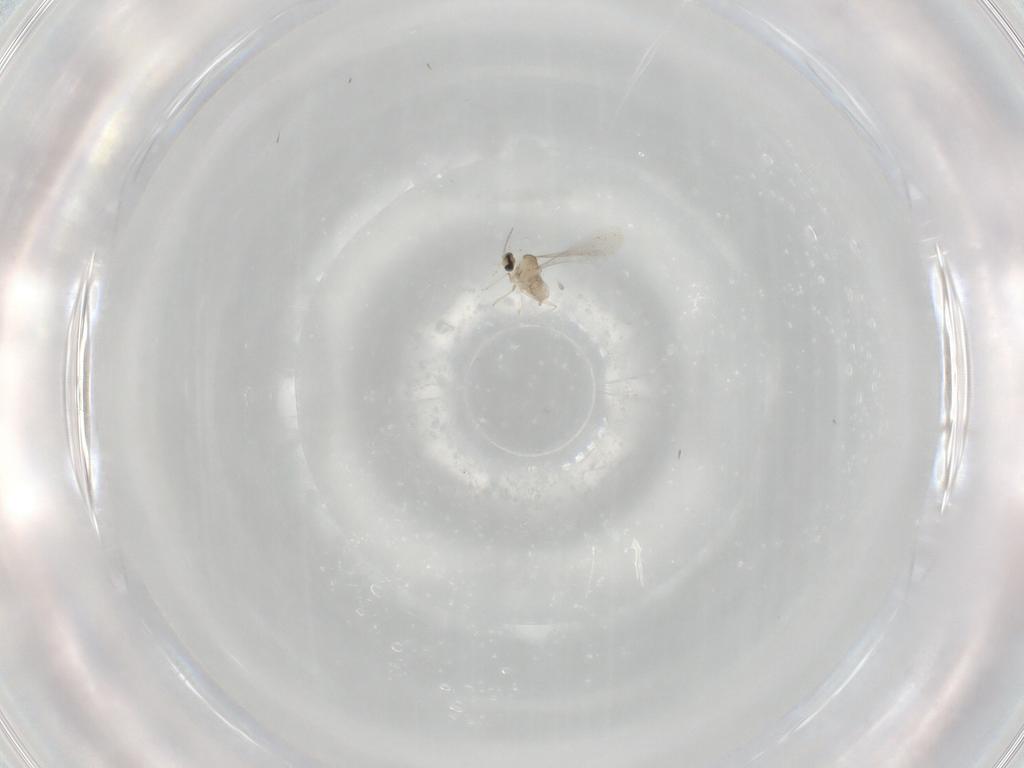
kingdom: Animalia
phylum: Arthropoda
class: Insecta
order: Diptera
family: Cecidomyiidae
